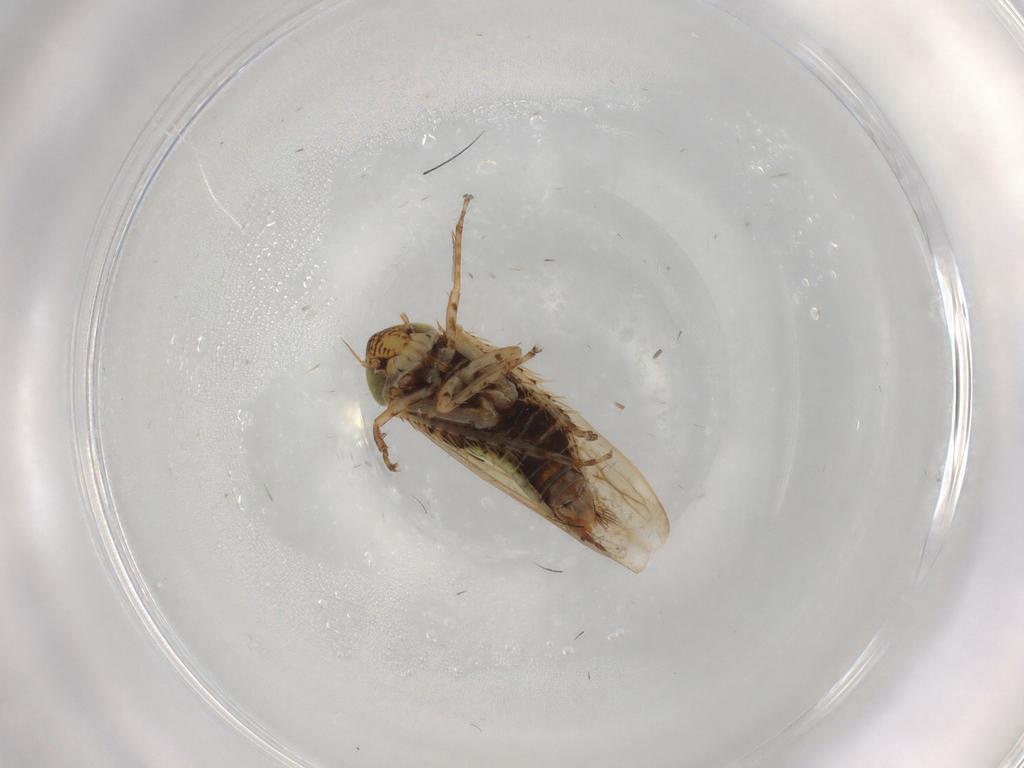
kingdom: Animalia
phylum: Arthropoda
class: Insecta
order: Hemiptera
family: Cicadellidae
